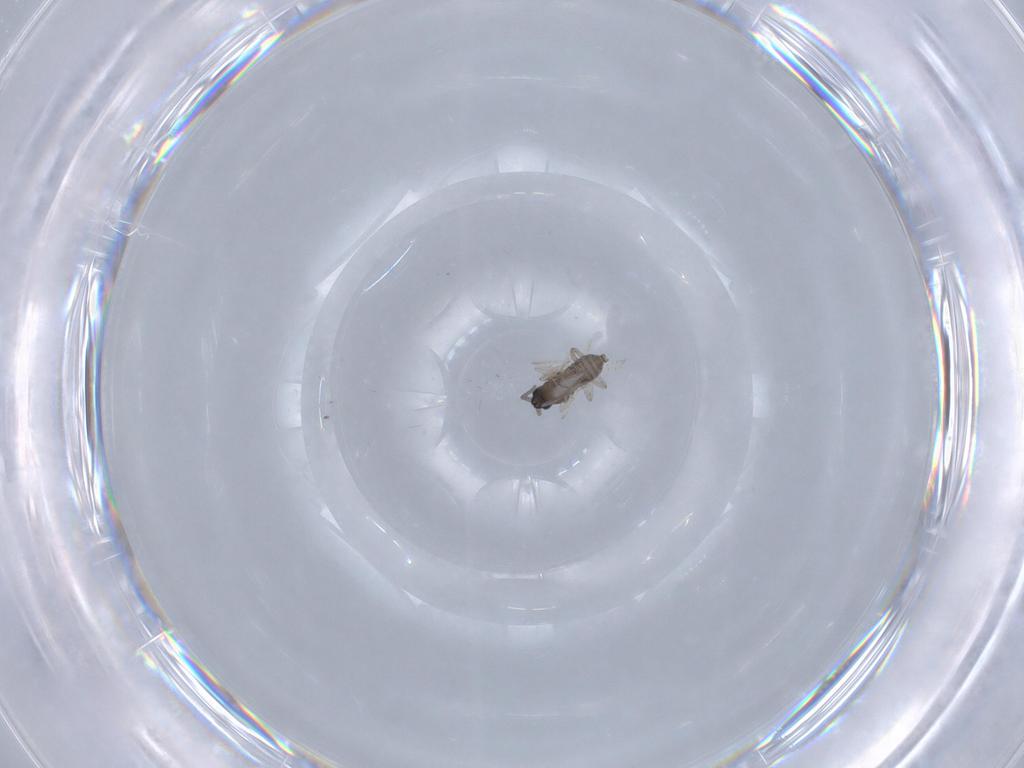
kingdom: Animalia
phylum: Arthropoda
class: Insecta
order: Diptera
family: Cecidomyiidae
